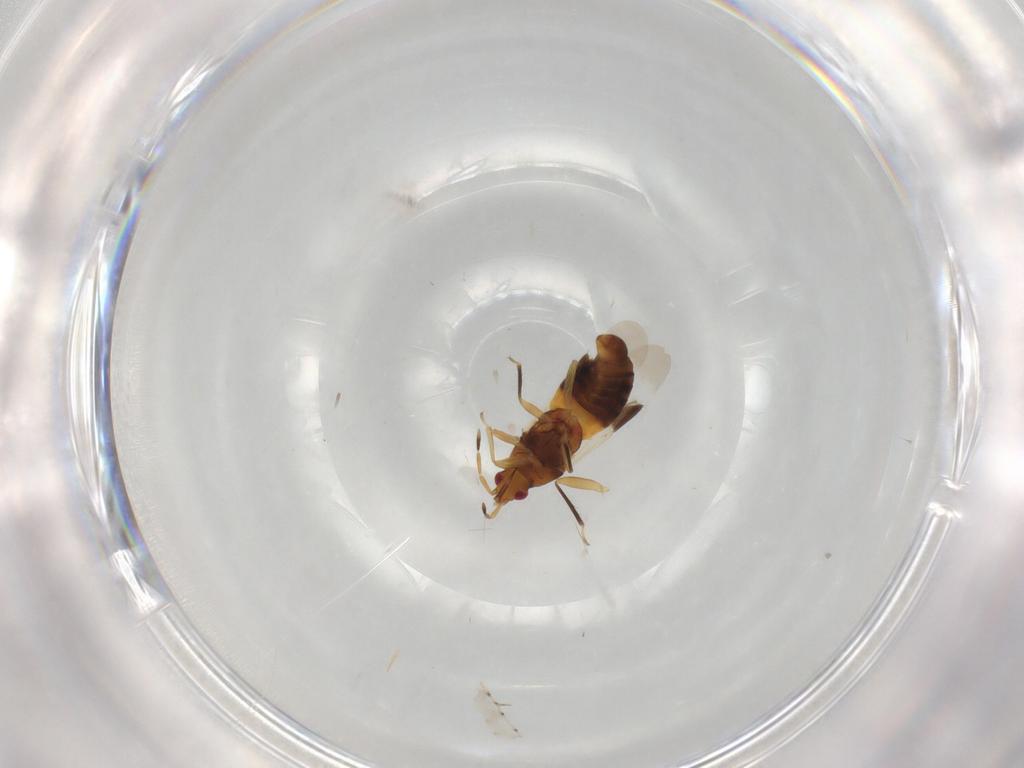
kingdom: Animalia
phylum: Arthropoda
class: Insecta
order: Hemiptera
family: Anthocoridae
